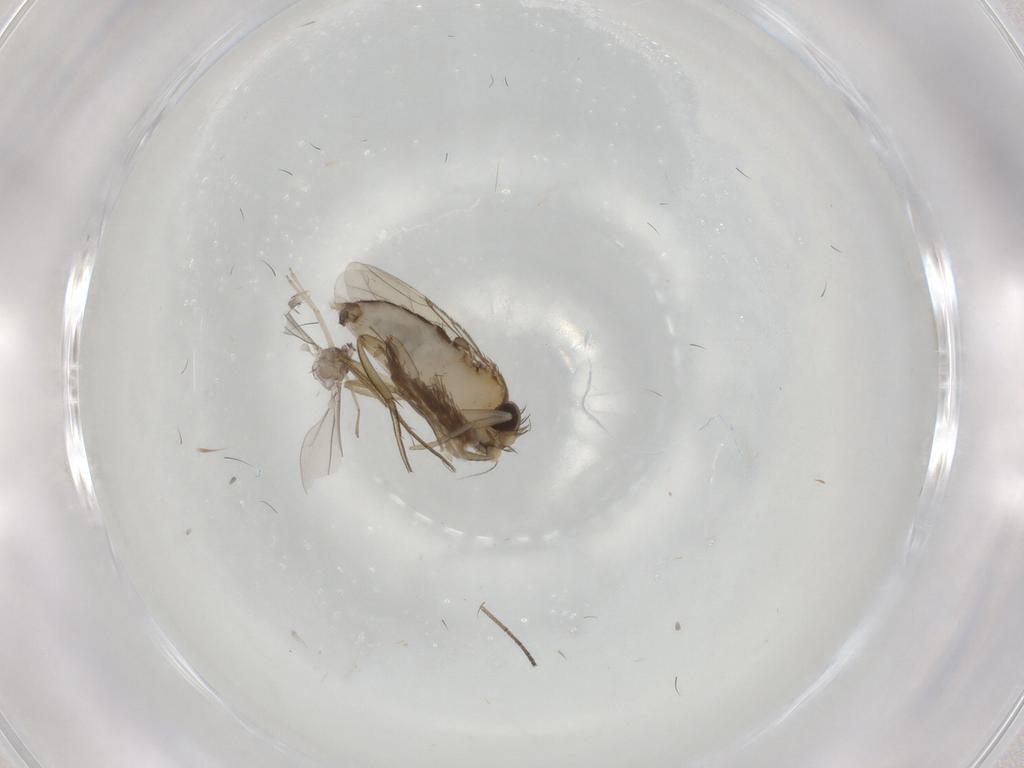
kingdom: Animalia
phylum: Arthropoda
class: Insecta
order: Diptera
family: Cecidomyiidae
